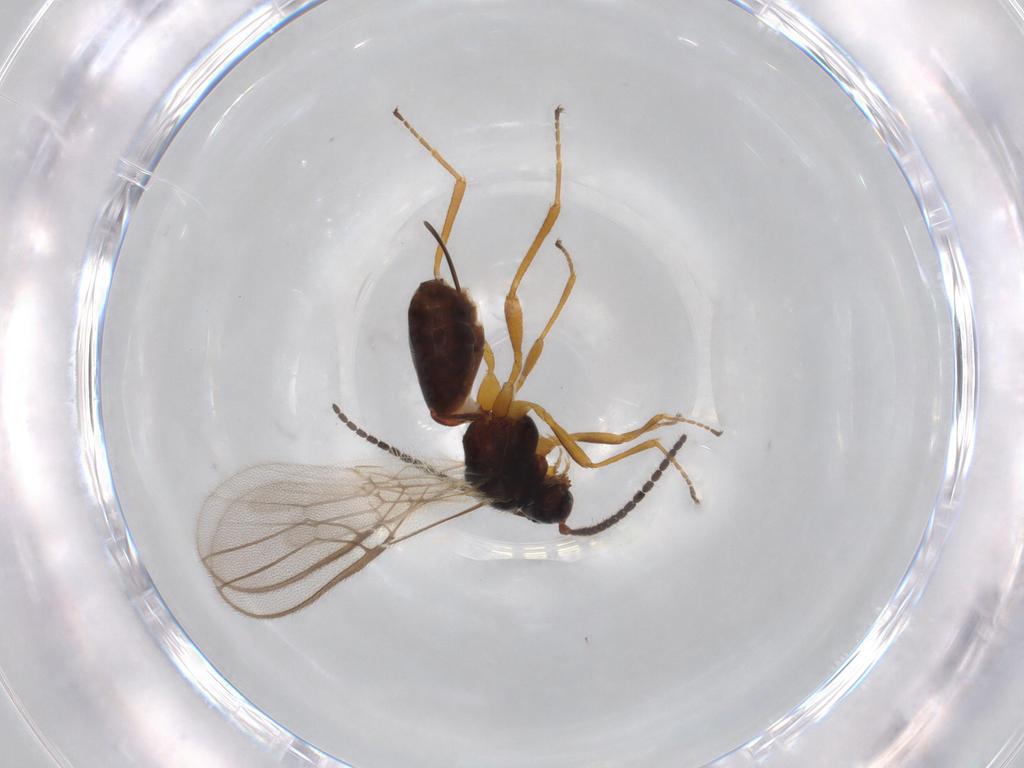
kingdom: Animalia
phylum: Arthropoda
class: Insecta
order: Hymenoptera
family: Braconidae
